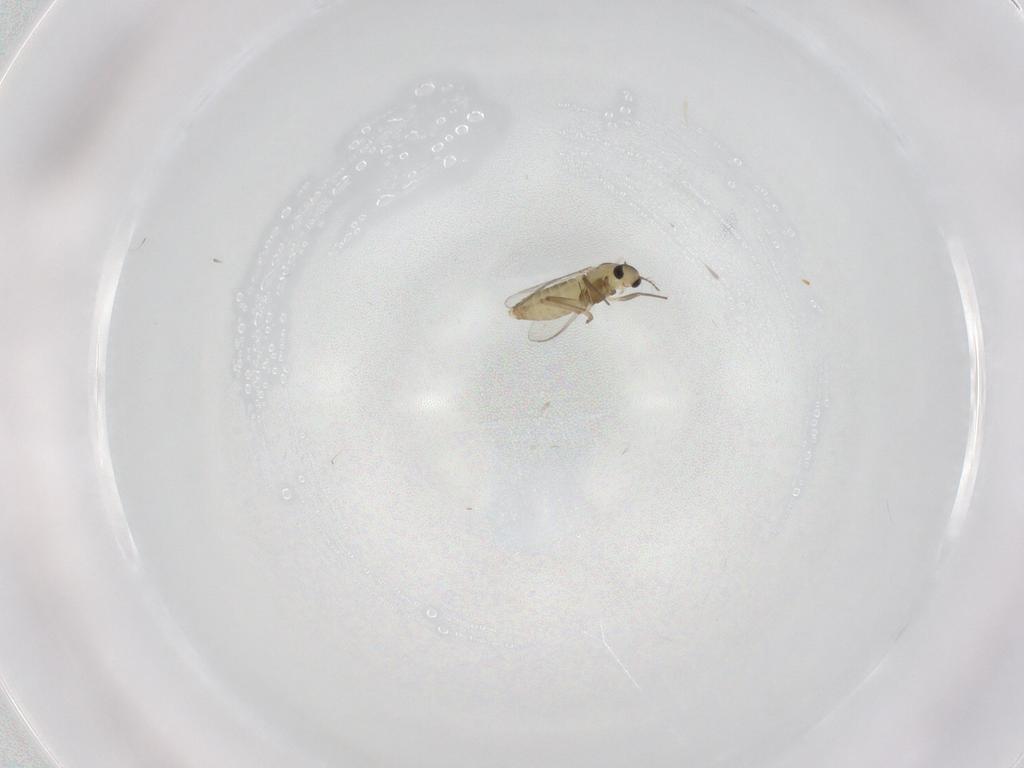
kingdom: Animalia
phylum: Arthropoda
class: Insecta
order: Diptera
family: Chironomidae
